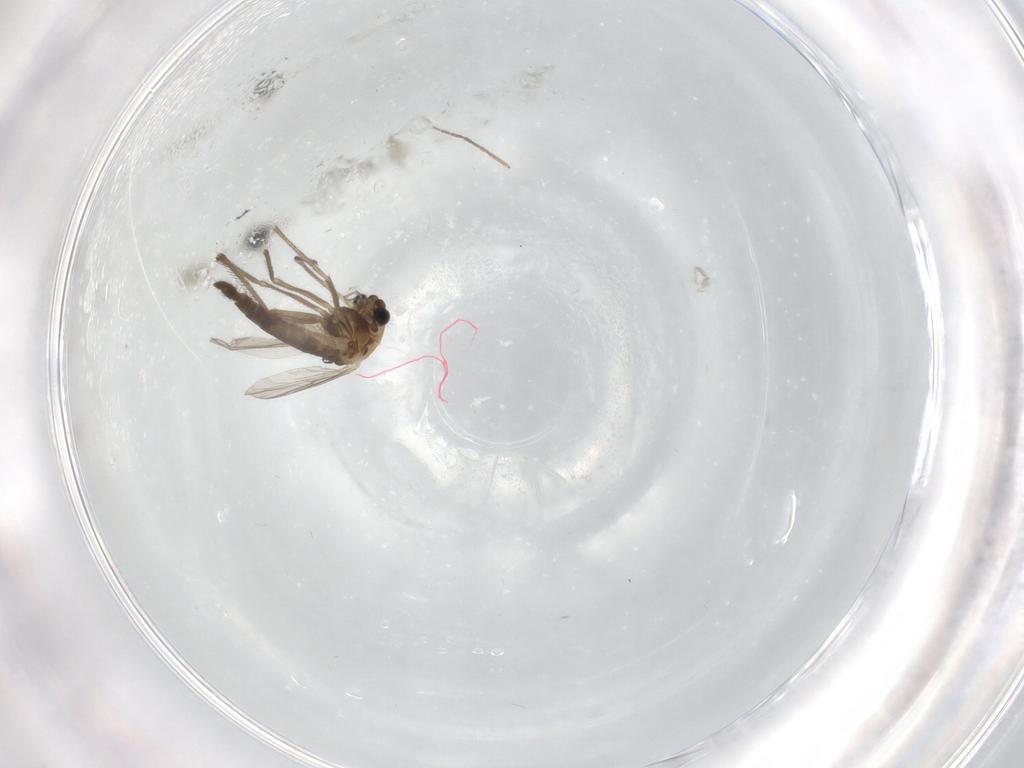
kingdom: Animalia
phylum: Arthropoda
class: Insecta
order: Diptera
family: Chironomidae
